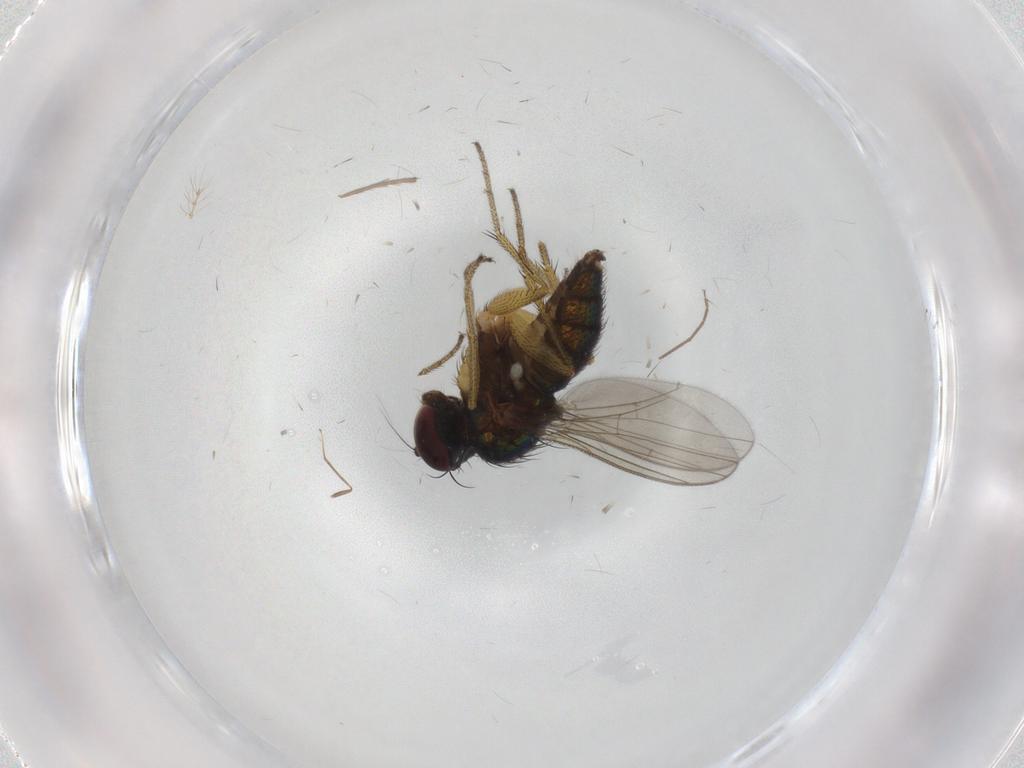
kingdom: Animalia
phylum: Arthropoda
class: Insecta
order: Diptera
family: Chironomidae
